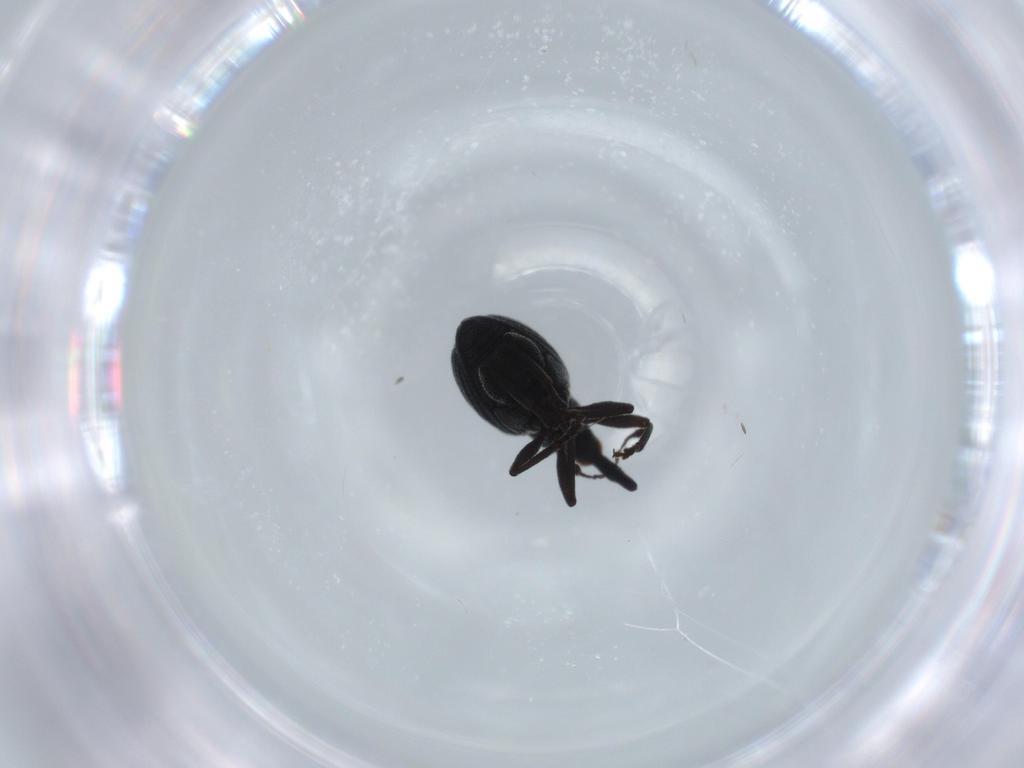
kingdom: Animalia
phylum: Arthropoda
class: Insecta
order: Coleoptera
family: Brentidae
